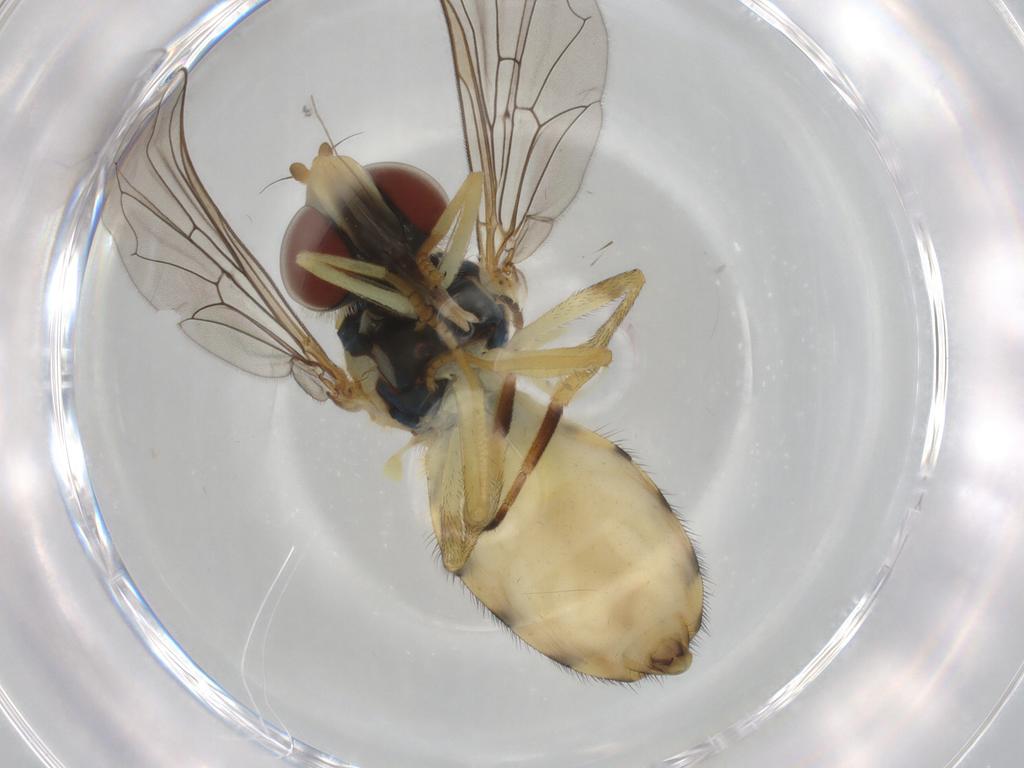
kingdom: Animalia
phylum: Arthropoda
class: Insecta
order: Diptera
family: Syrphidae
